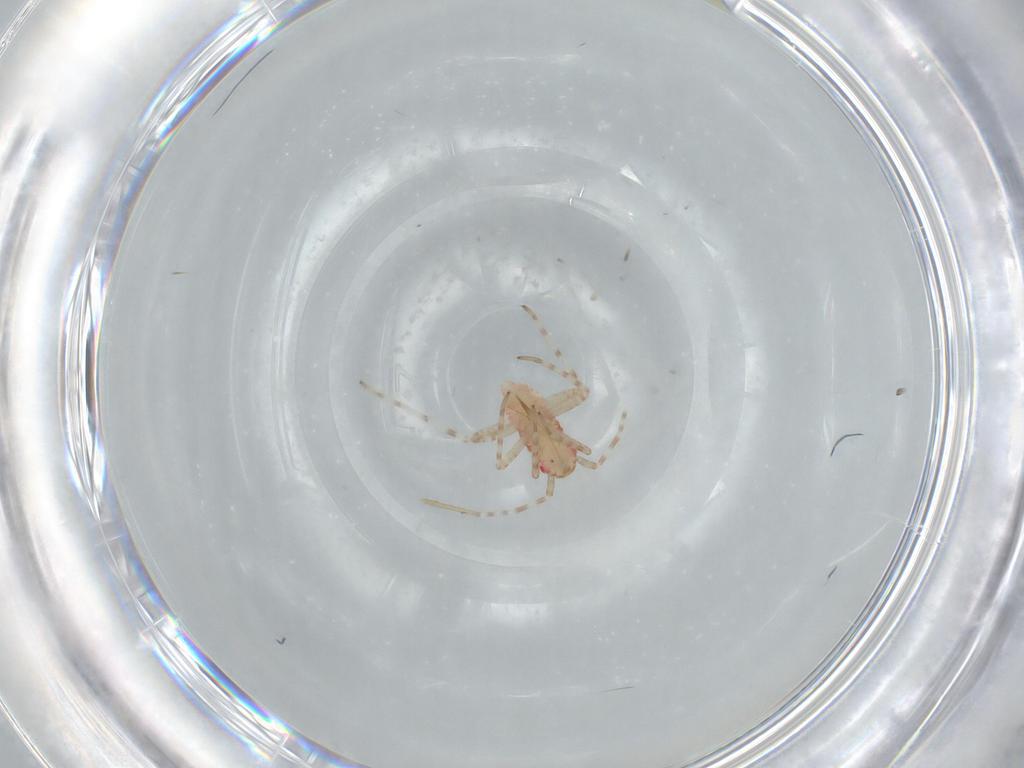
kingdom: Animalia
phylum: Arthropoda
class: Insecta
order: Hemiptera
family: Miridae
